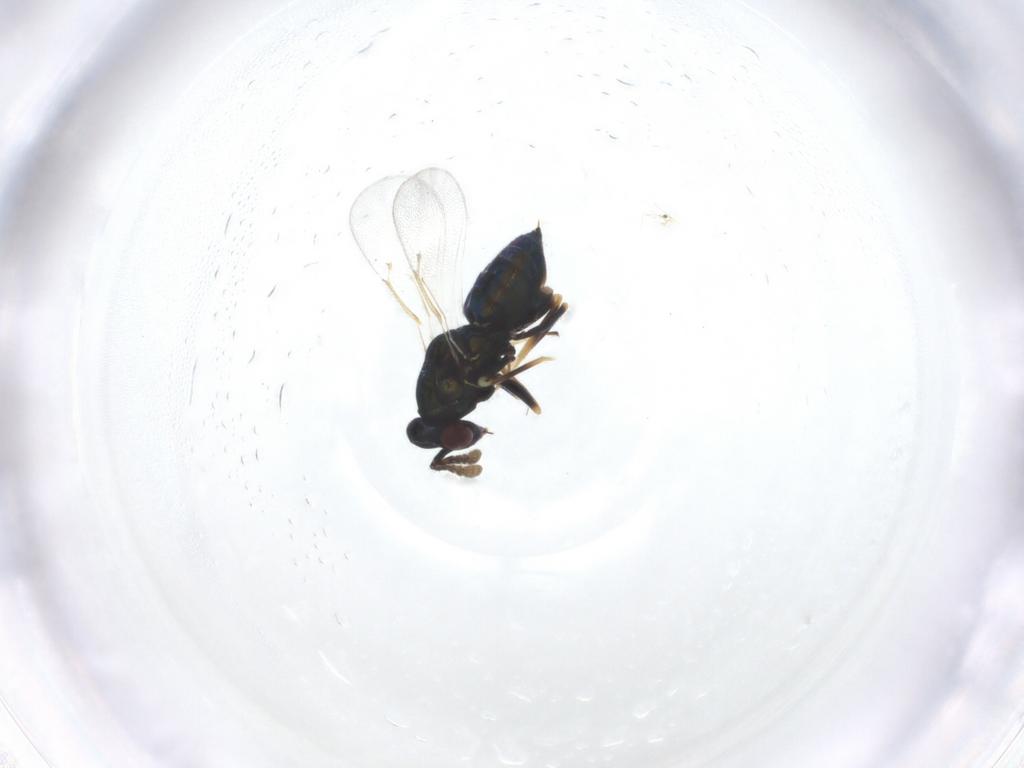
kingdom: Animalia
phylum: Arthropoda
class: Insecta
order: Hymenoptera
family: Eulophidae
